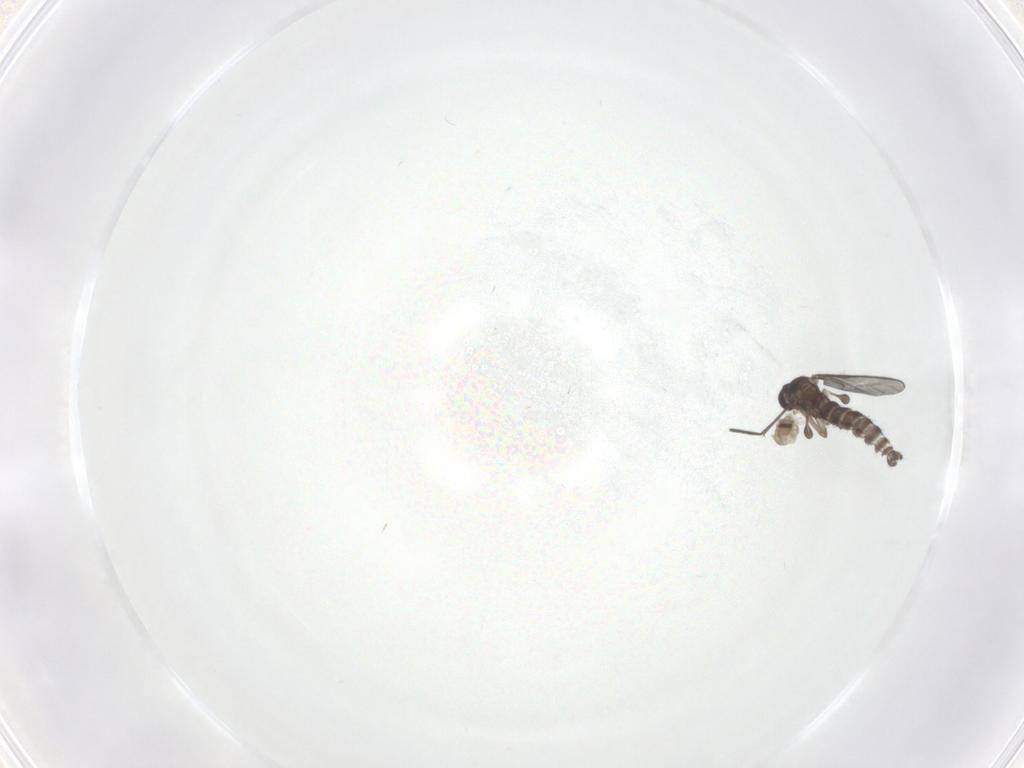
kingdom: Animalia
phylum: Arthropoda
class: Insecta
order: Diptera
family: Cecidomyiidae
